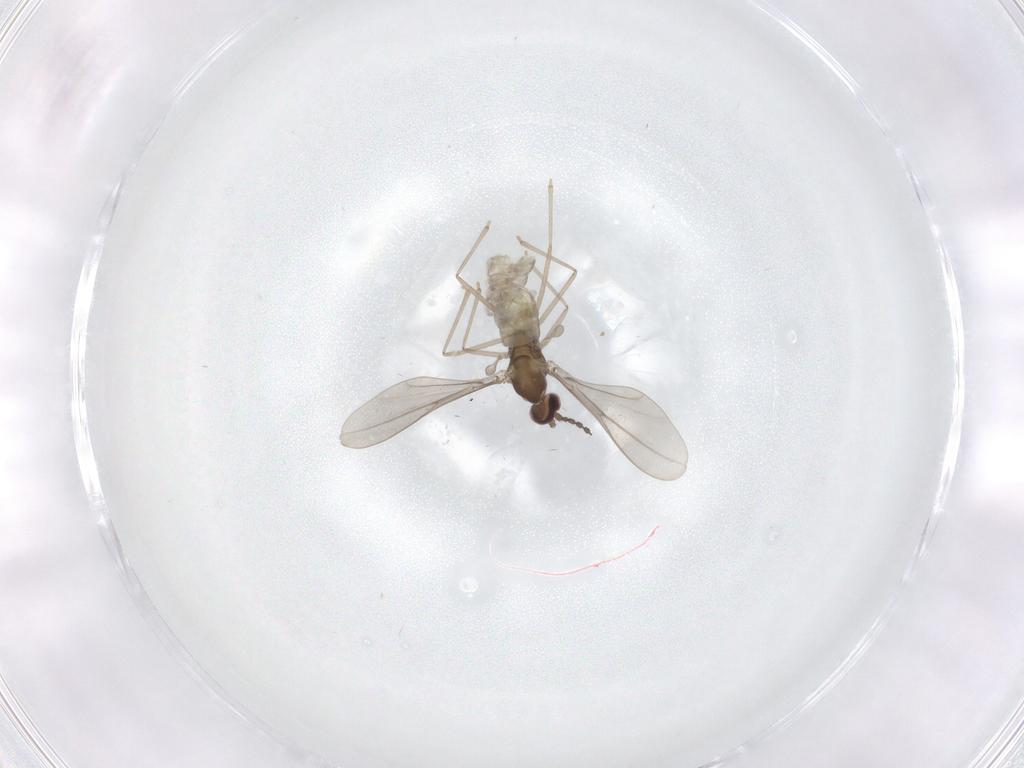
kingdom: Animalia
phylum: Arthropoda
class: Insecta
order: Diptera
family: Cecidomyiidae
